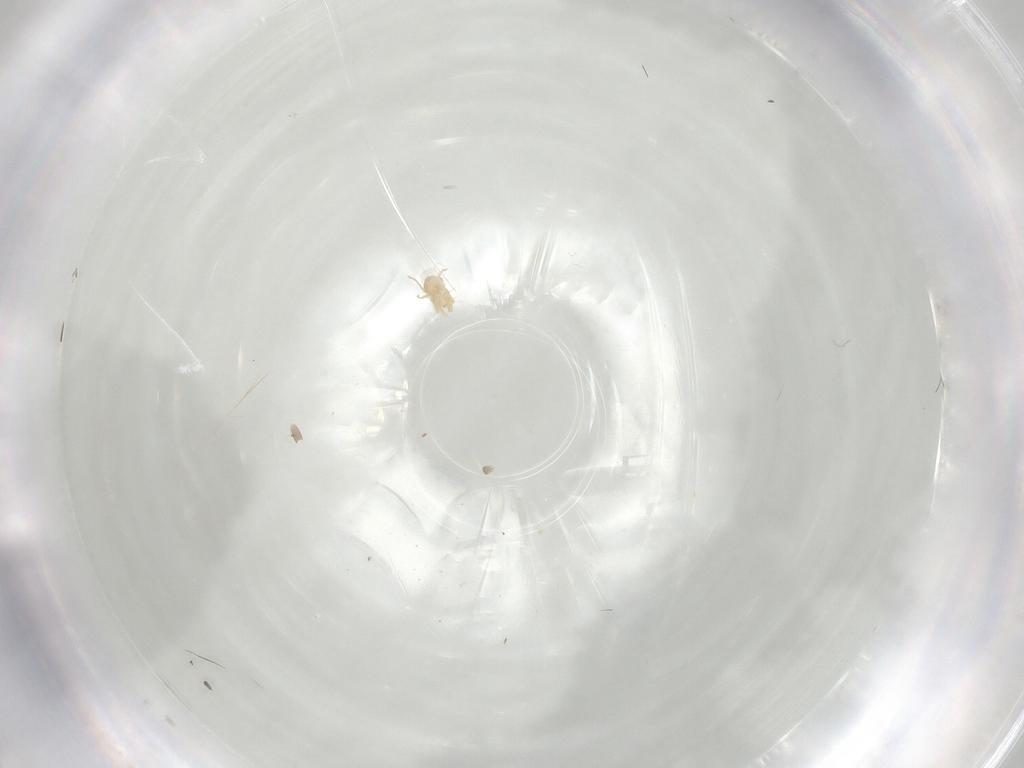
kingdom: Animalia
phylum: Arthropoda
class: Arachnida
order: Trombidiformes
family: Tetranychidae
